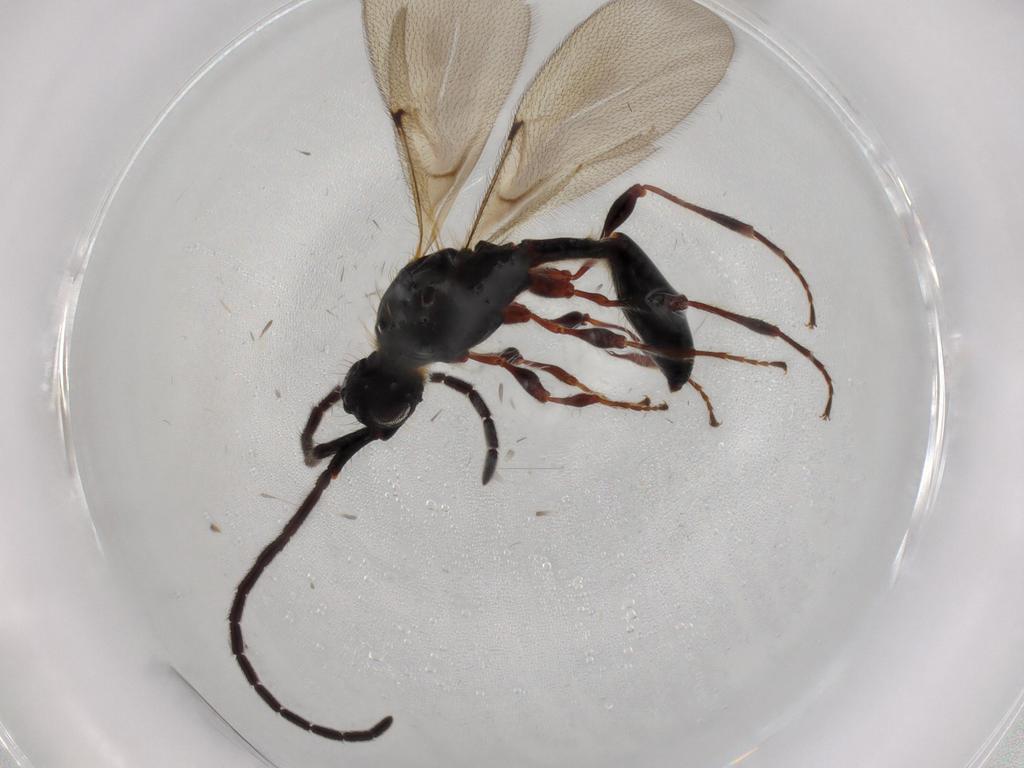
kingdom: Animalia
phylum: Arthropoda
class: Insecta
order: Hymenoptera
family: Diapriidae
